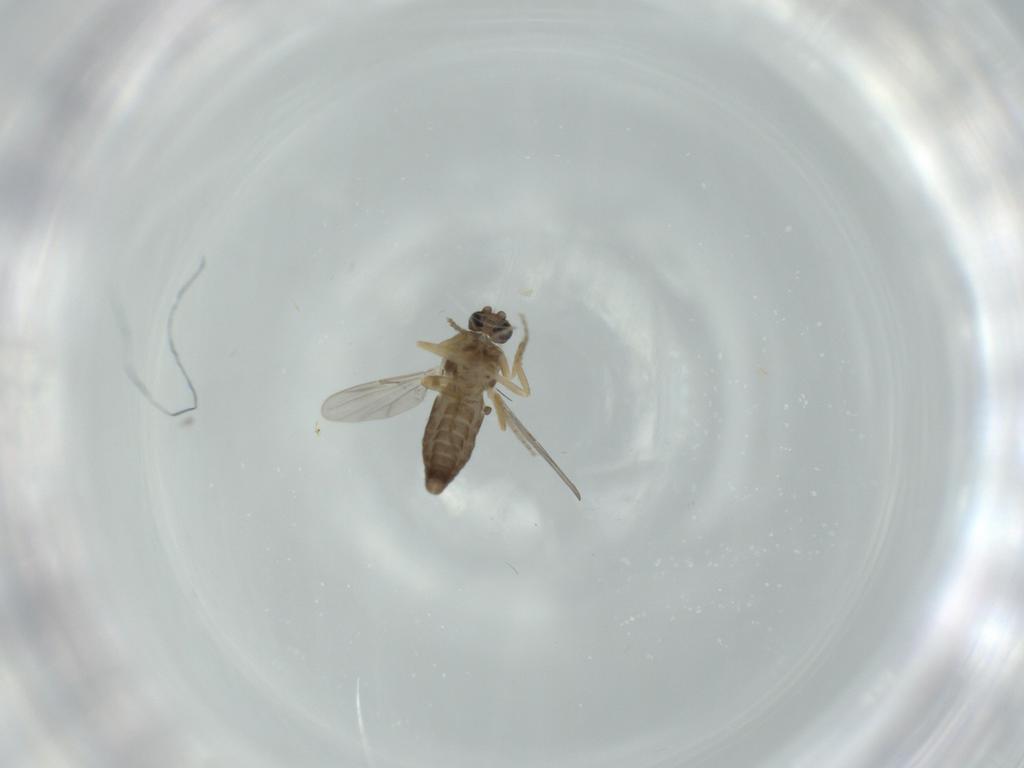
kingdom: Animalia
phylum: Arthropoda
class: Insecta
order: Diptera
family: Ceratopogonidae
